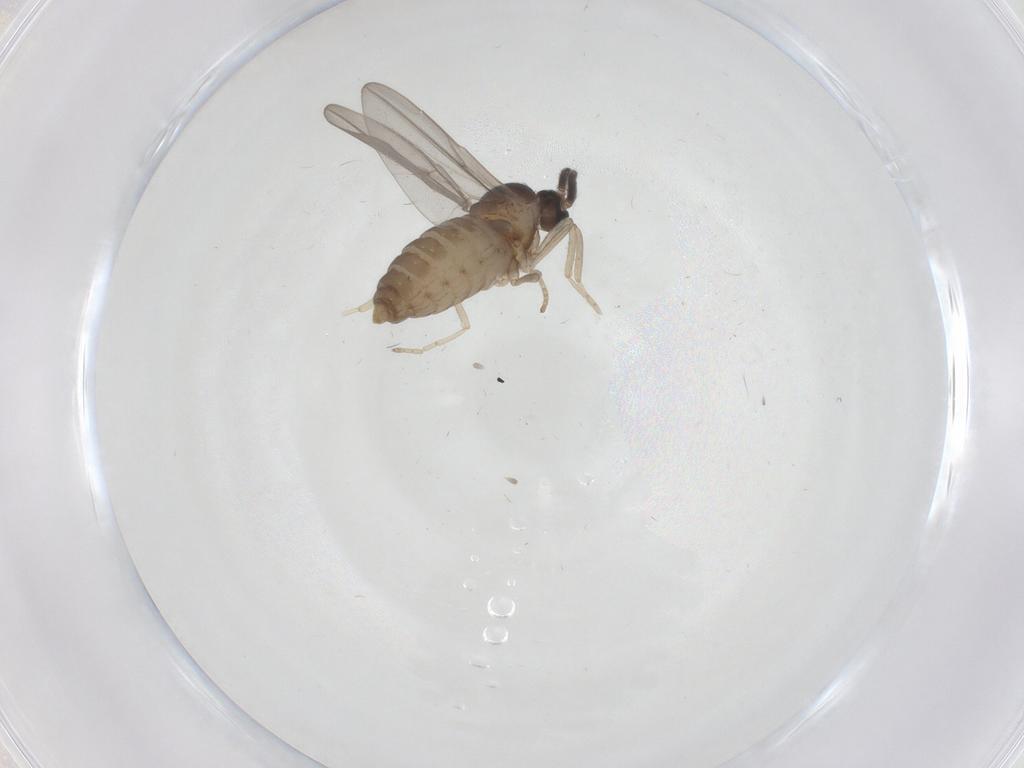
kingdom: Animalia
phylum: Arthropoda
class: Insecta
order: Diptera
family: Cecidomyiidae
